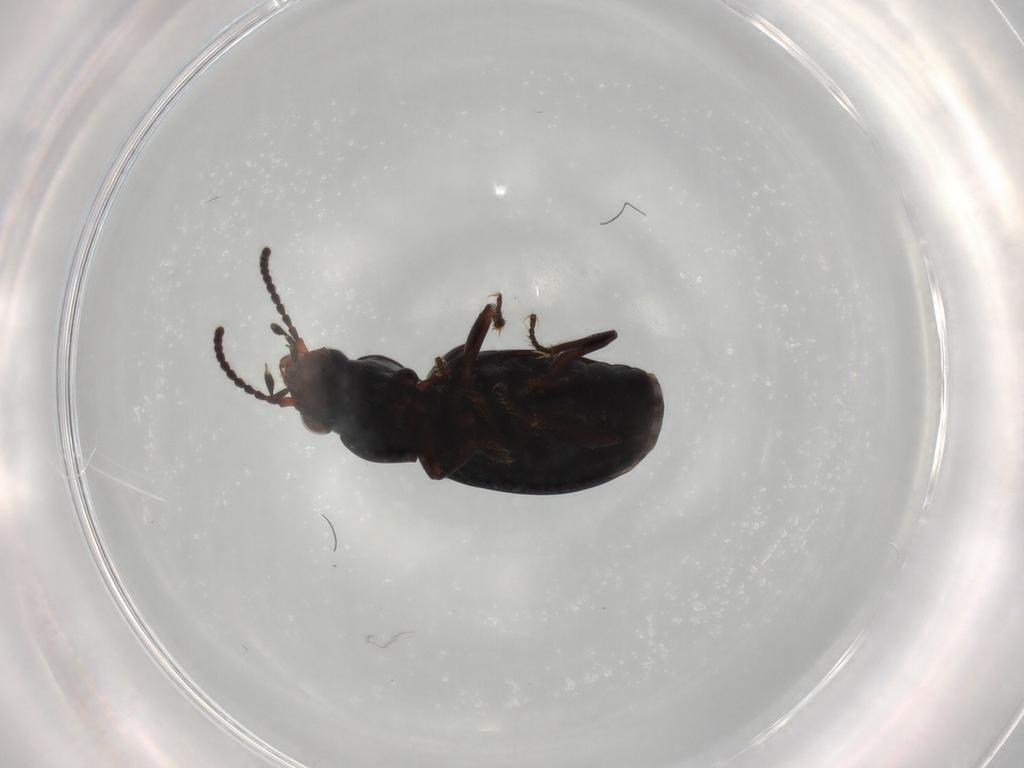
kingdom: Animalia
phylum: Arthropoda
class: Insecta
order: Coleoptera
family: Carabidae
